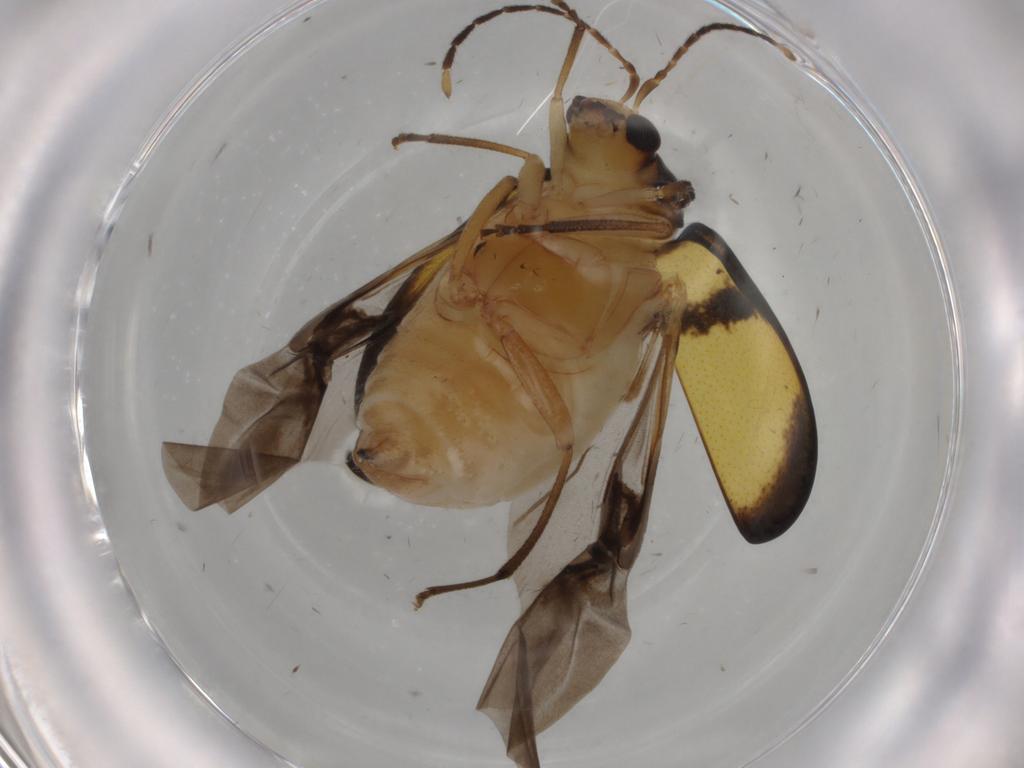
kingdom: Animalia
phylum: Arthropoda
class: Insecta
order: Coleoptera
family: Chrysomelidae
